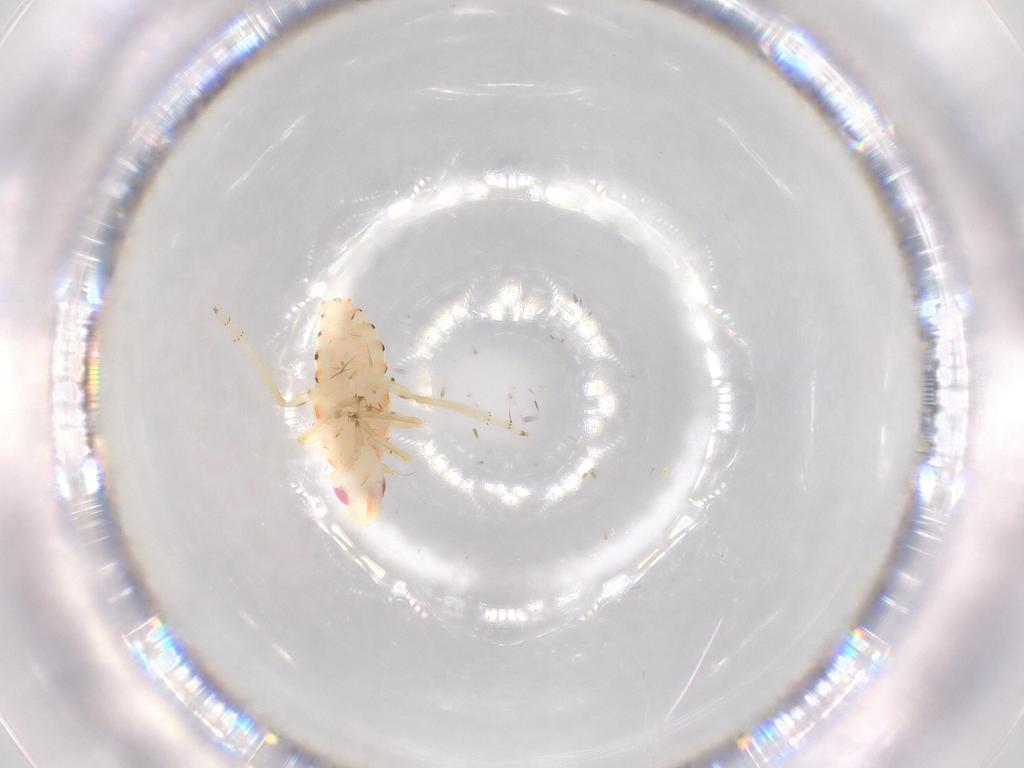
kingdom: Animalia
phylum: Arthropoda
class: Insecta
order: Hemiptera
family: Tropiduchidae
